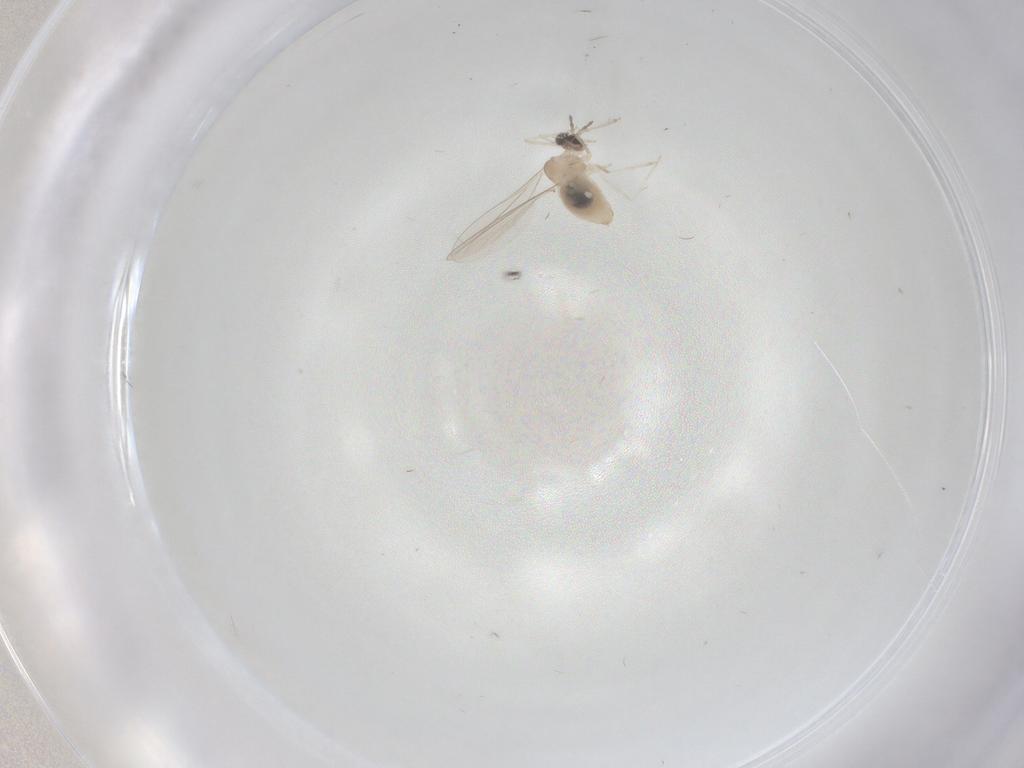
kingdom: Animalia
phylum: Arthropoda
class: Insecta
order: Diptera
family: Cecidomyiidae
